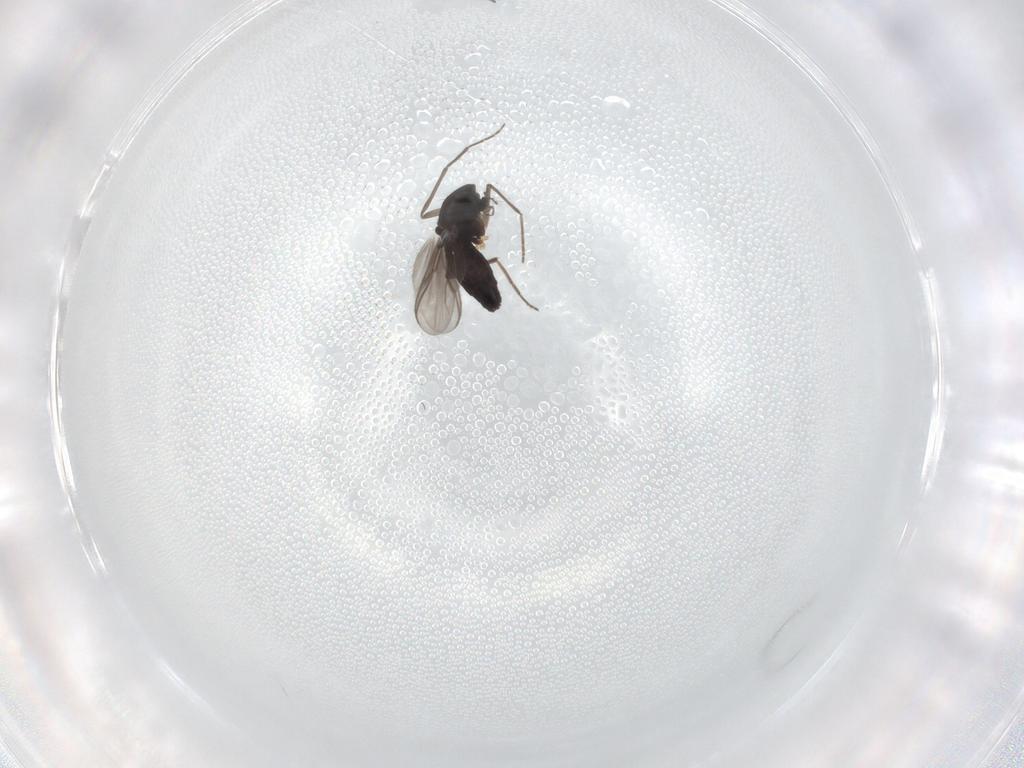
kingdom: Animalia
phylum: Arthropoda
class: Insecta
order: Diptera
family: Chironomidae
